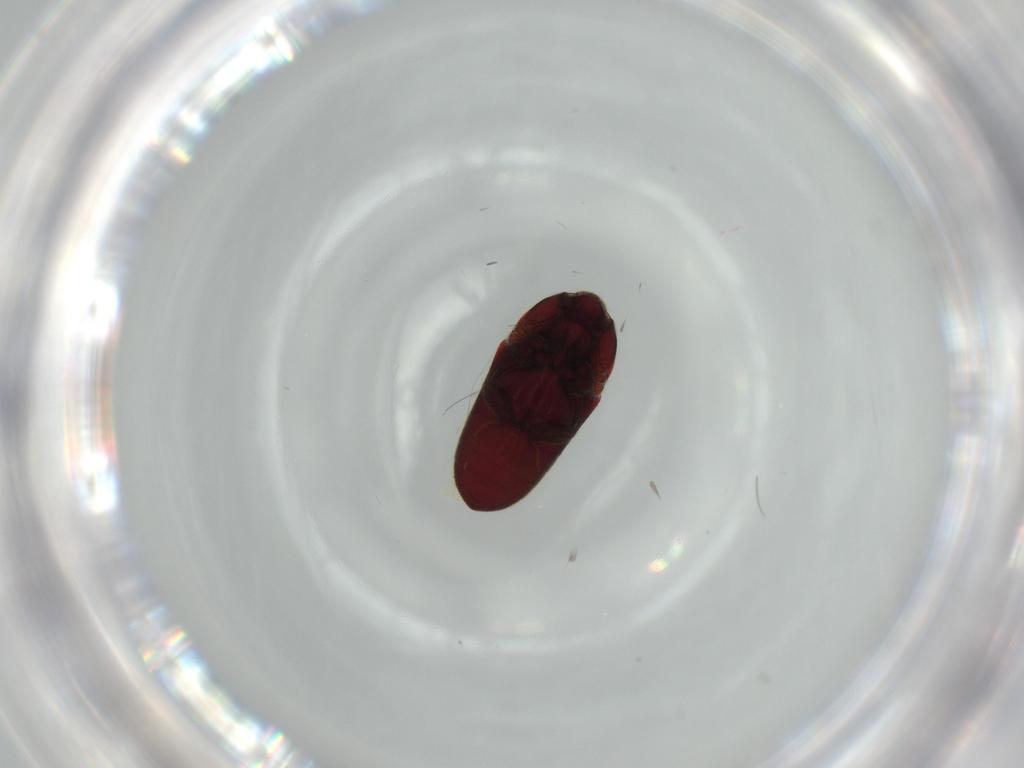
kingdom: Animalia
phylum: Arthropoda
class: Insecta
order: Coleoptera
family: Throscidae
